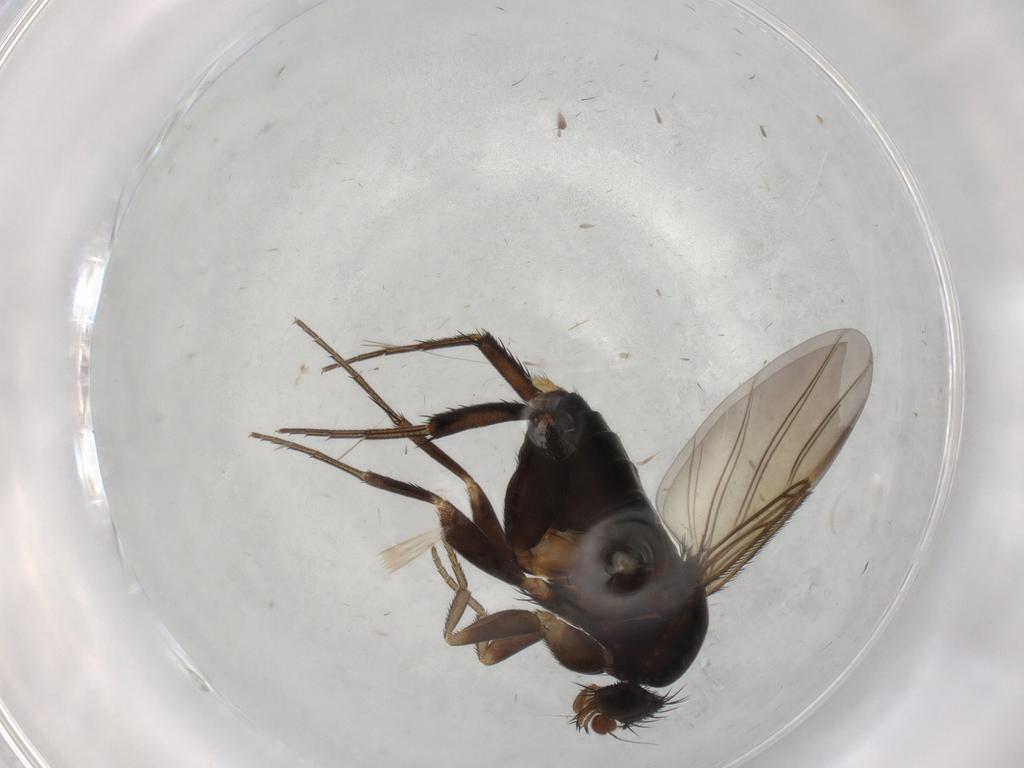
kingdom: Animalia
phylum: Arthropoda
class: Insecta
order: Diptera
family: Phoridae
